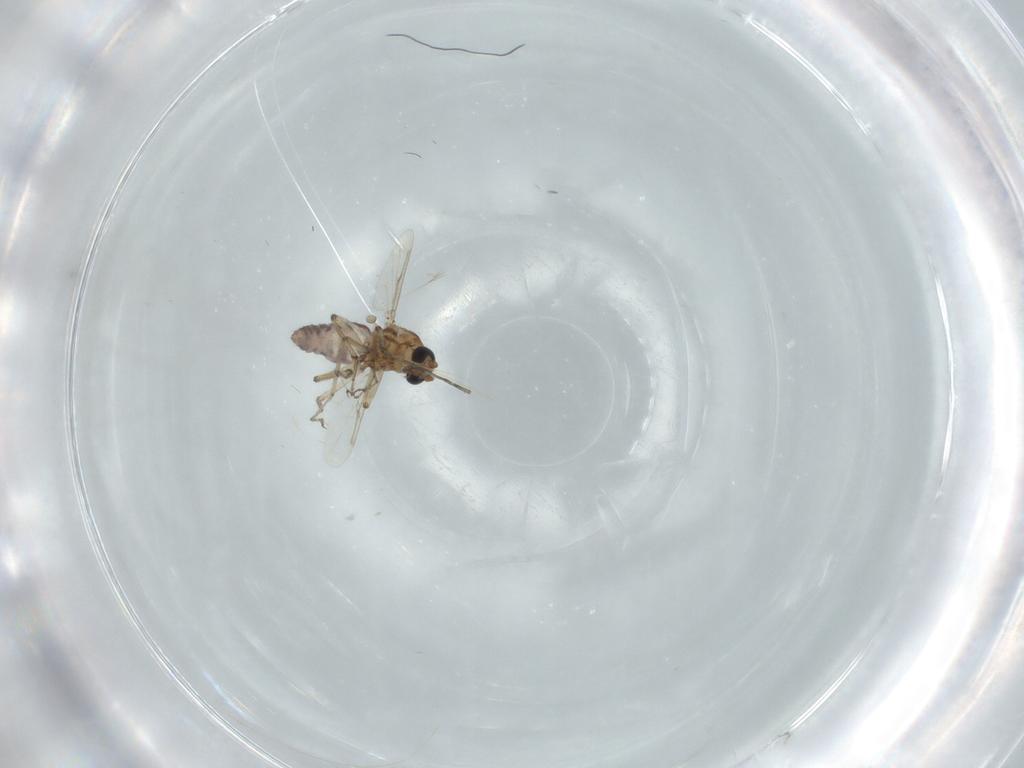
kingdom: Animalia
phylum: Arthropoda
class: Insecta
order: Diptera
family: Ceratopogonidae
